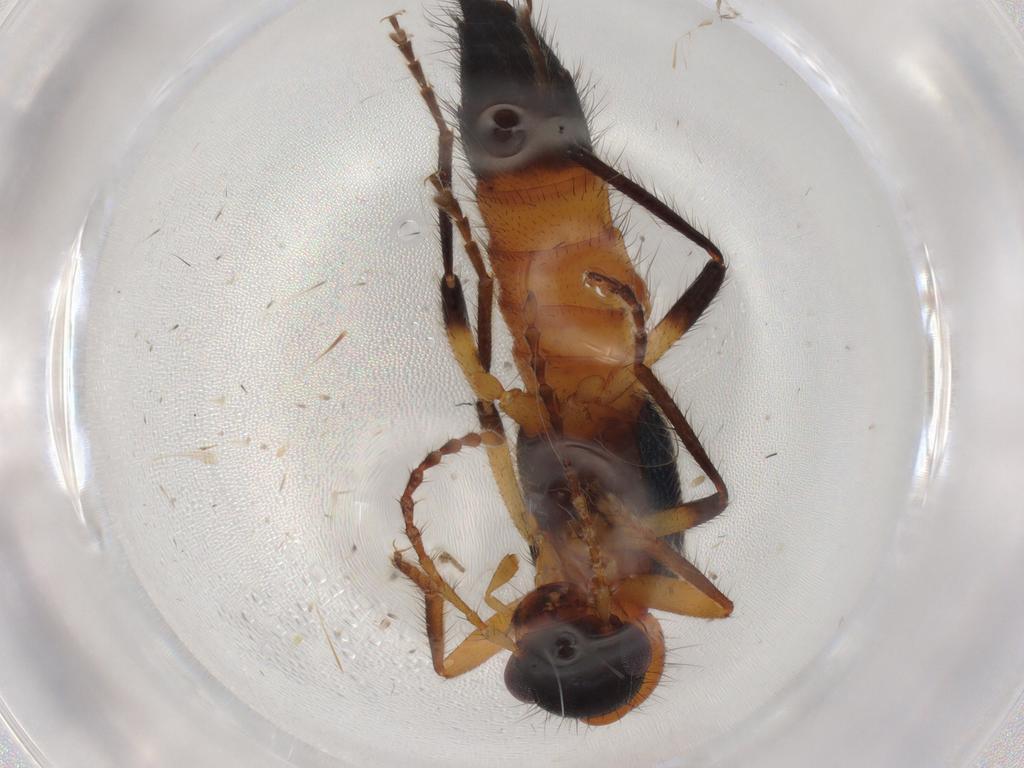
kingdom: Animalia
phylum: Arthropoda
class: Insecta
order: Coleoptera
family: Staphylinidae
